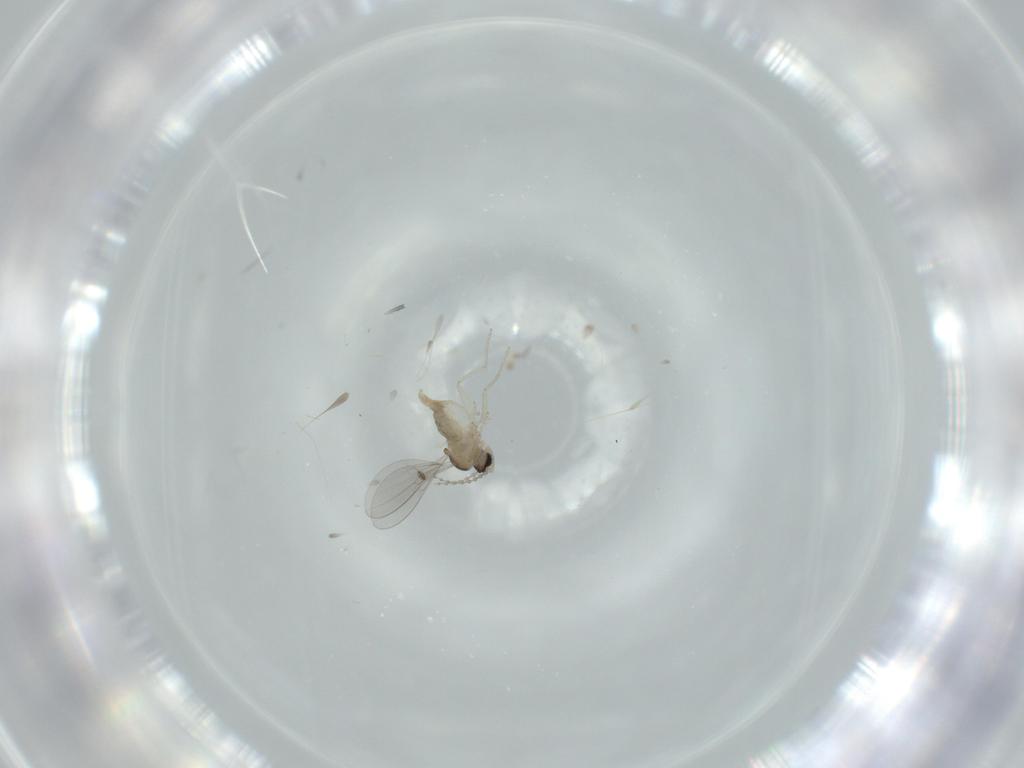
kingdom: Animalia
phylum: Arthropoda
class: Insecta
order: Diptera
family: Cecidomyiidae
